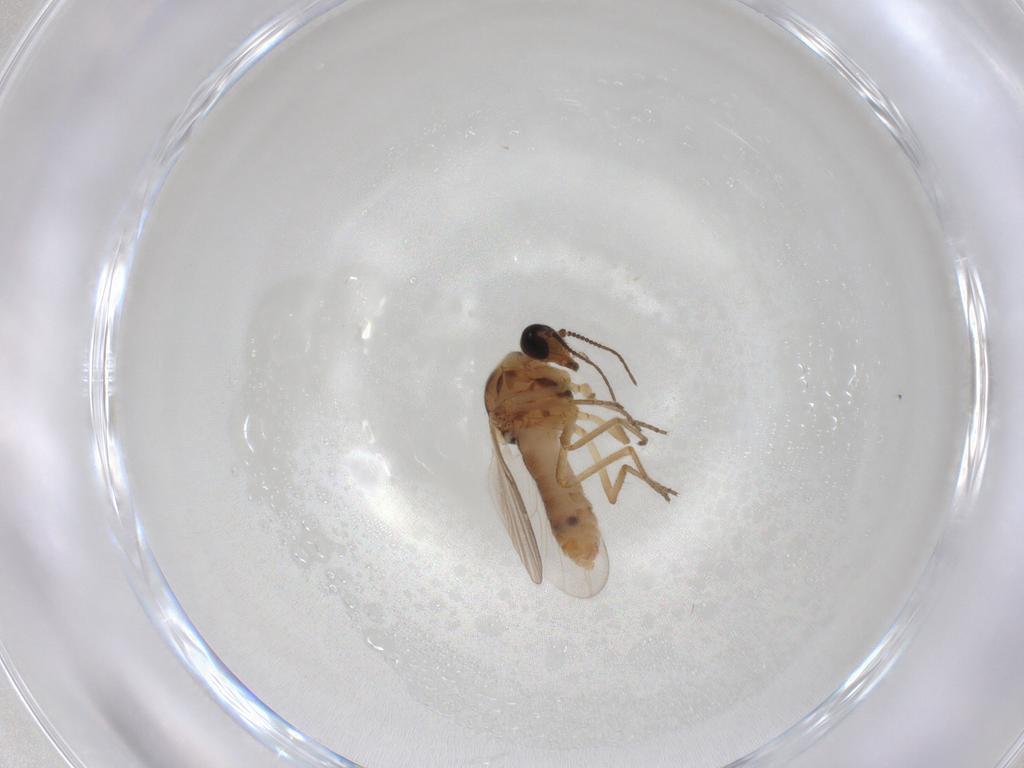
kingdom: Animalia
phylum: Arthropoda
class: Insecta
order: Diptera
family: Chironomidae
